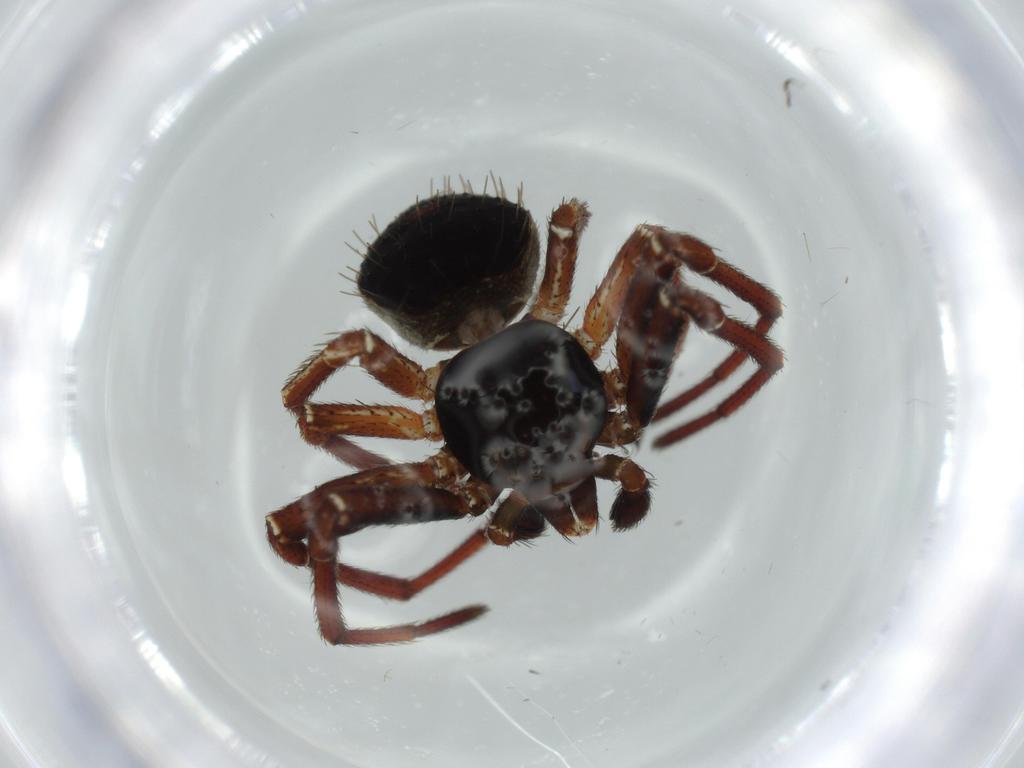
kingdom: Animalia
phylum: Arthropoda
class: Arachnida
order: Araneae
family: Thomisidae
